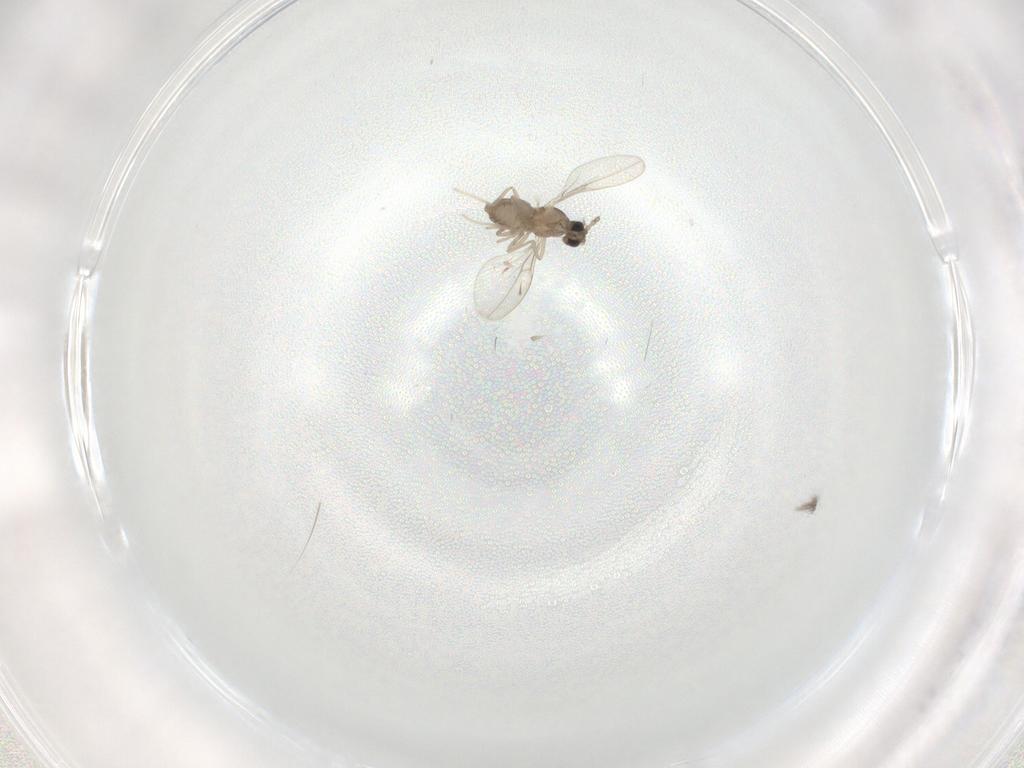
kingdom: Animalia
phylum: Arthropoda
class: Insecta
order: Diptera
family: Cecidomyiidae
